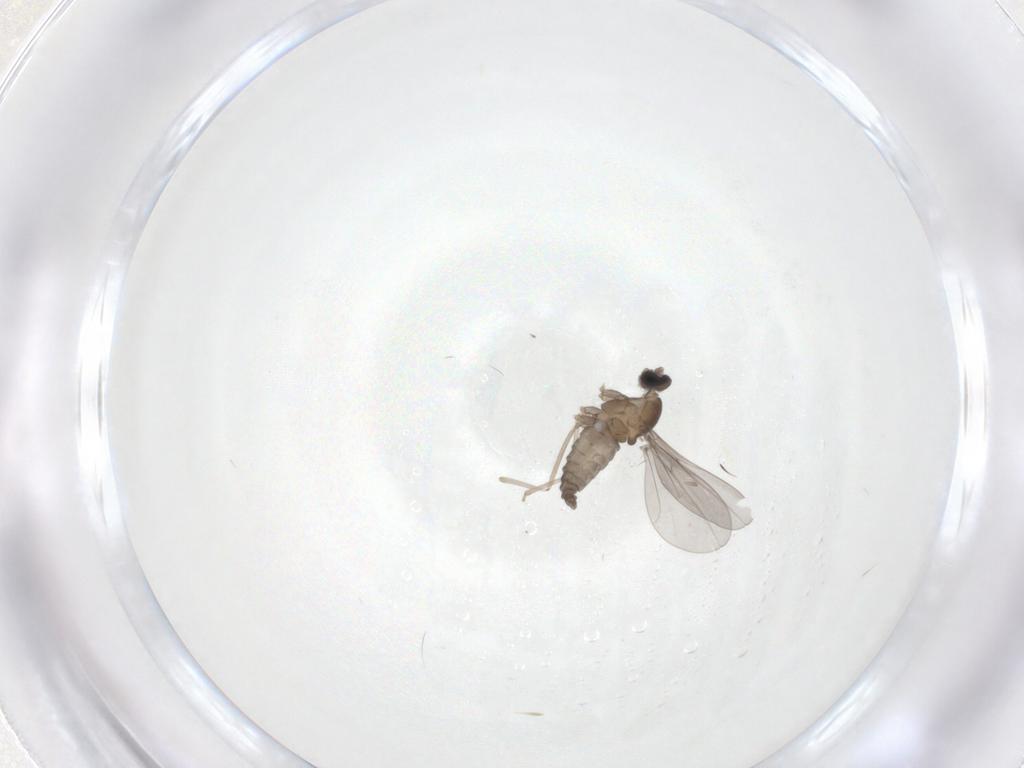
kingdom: Animalia
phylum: Arthropoda
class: Insecta
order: Diptera
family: Cecidomyiidae
